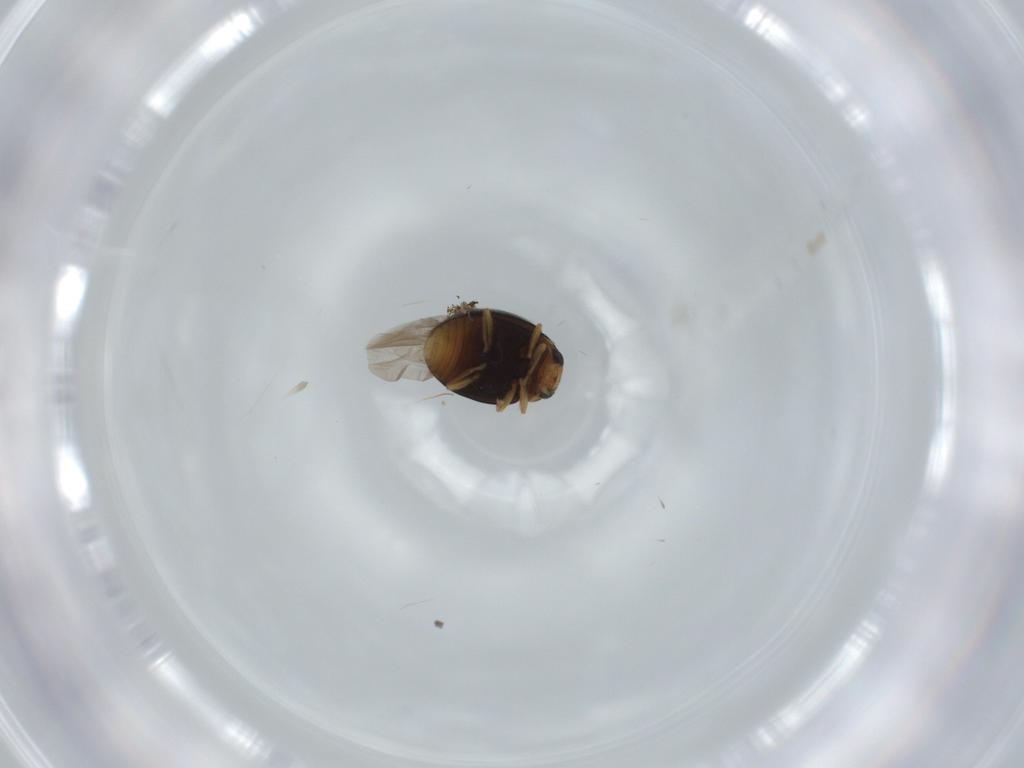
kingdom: Animalia
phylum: Arthropoda
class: Insecta
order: Coleoptera
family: Coccinellidae
